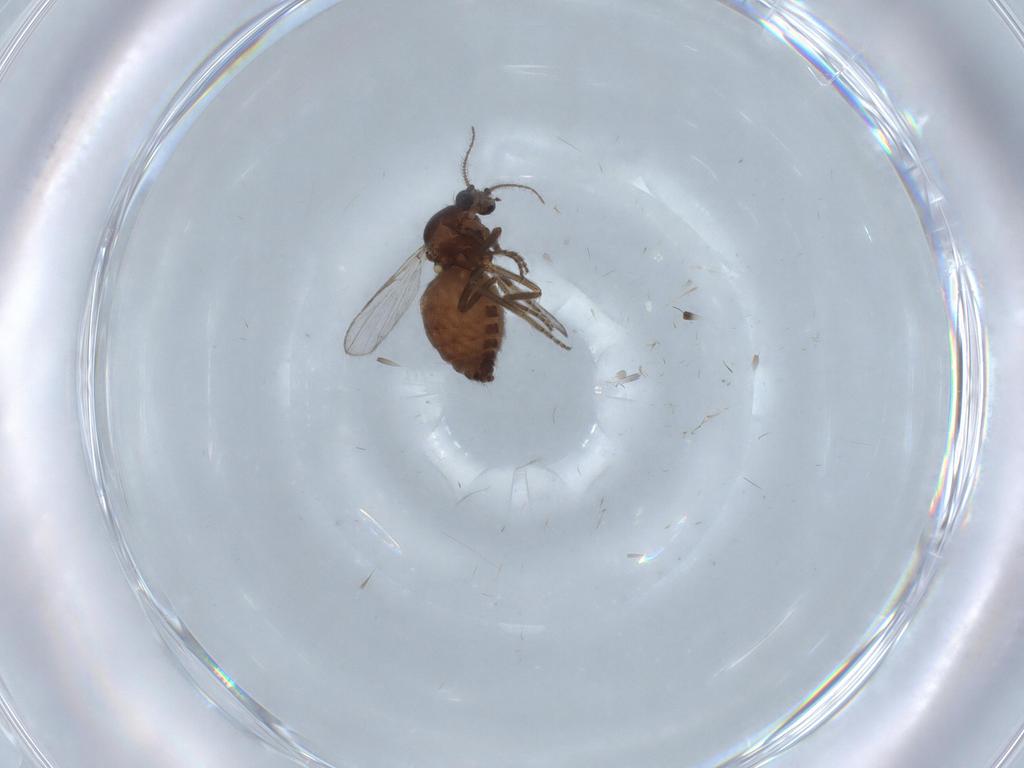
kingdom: Animalia
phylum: Arthropoda
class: Insecta
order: Diptera
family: Ceratopogonidae
